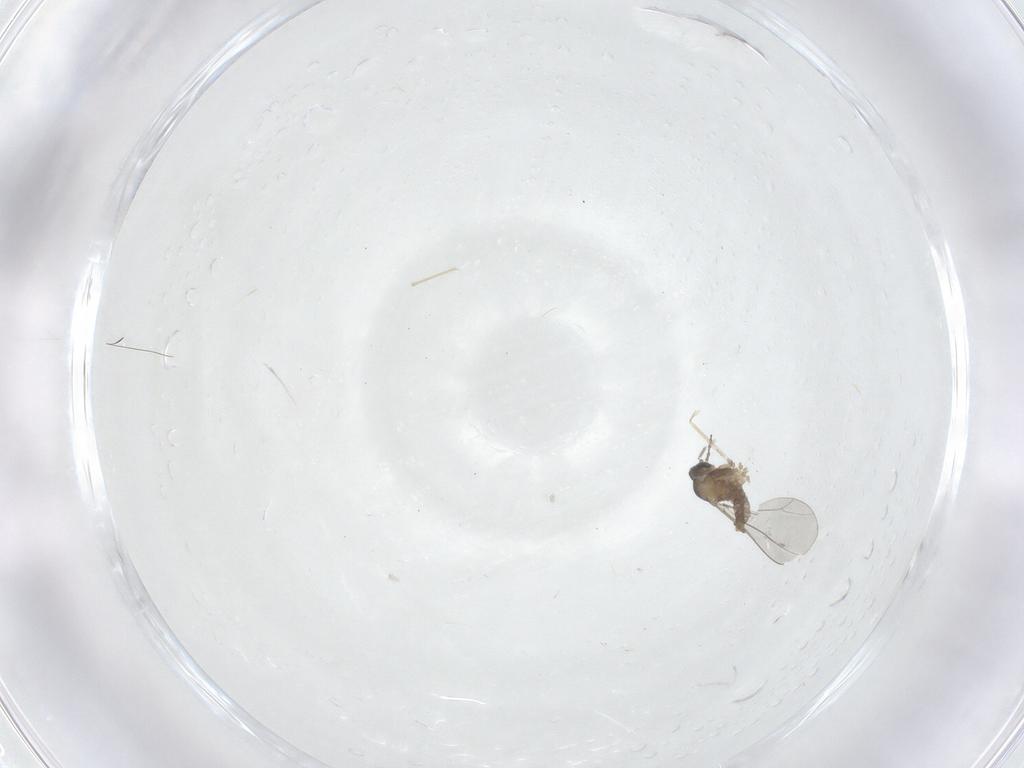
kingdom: Animalia
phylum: Arthropoda
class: Insecta
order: Diptera
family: Cecidomyiidae
